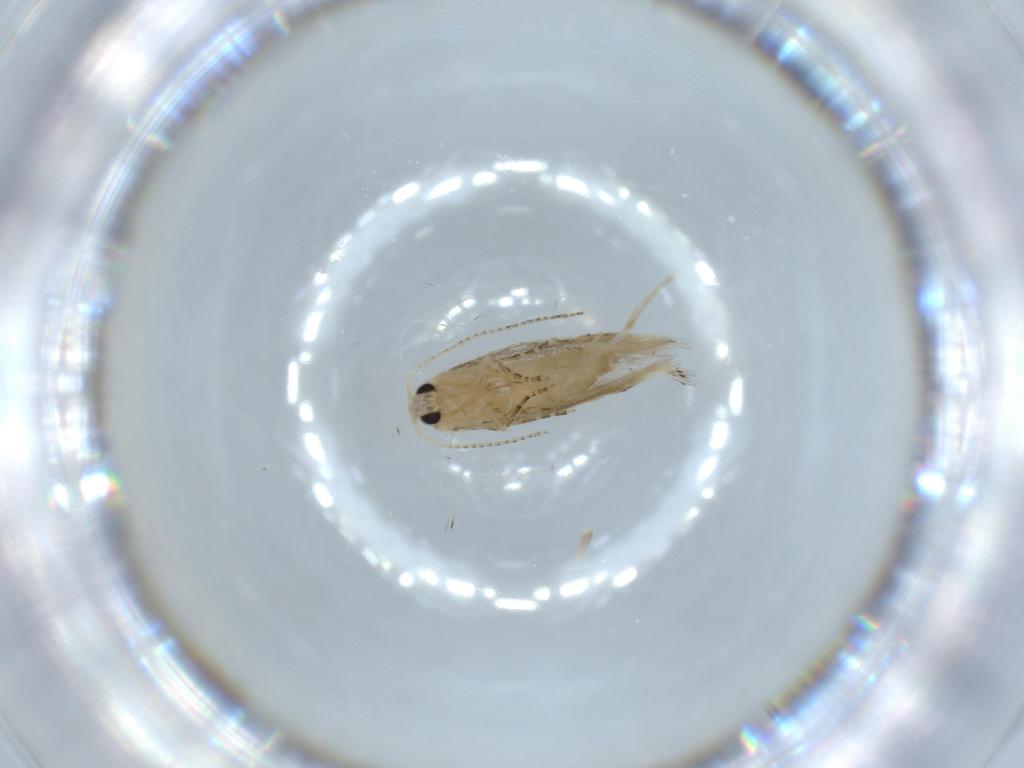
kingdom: Animalia
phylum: Arthropoda
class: Insecta
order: Lepidoptera
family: Bucculatricidae
